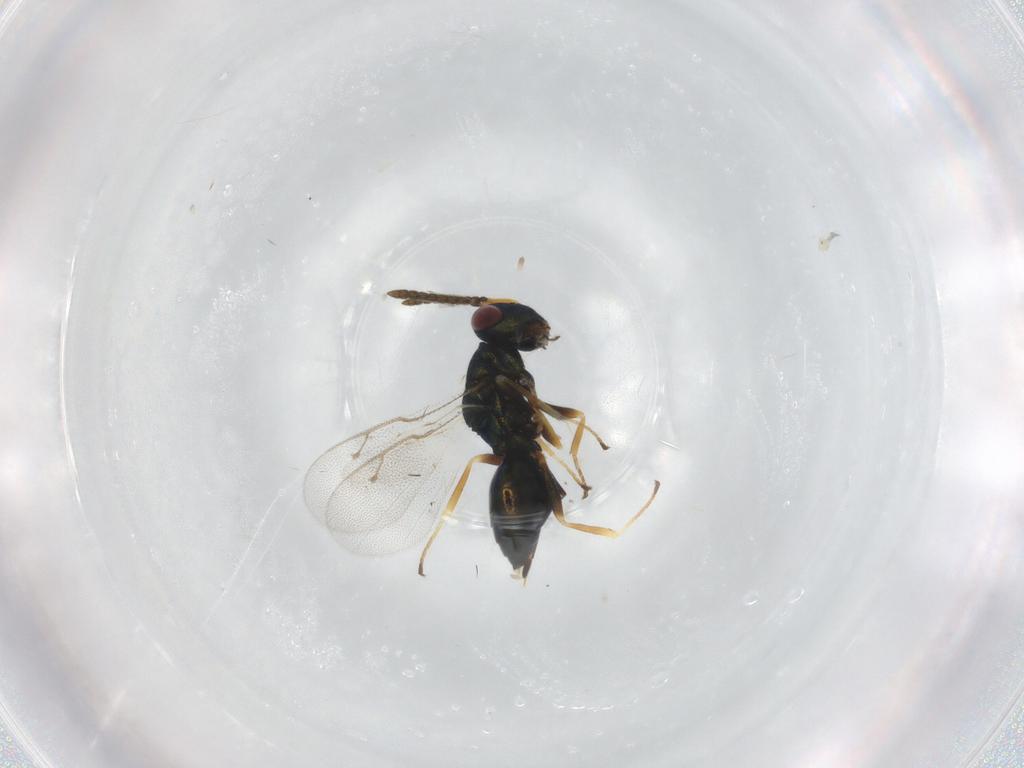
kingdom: Animalia
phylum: Arthropoda
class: Insecta
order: Hymenoptera
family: Pteromalidae
